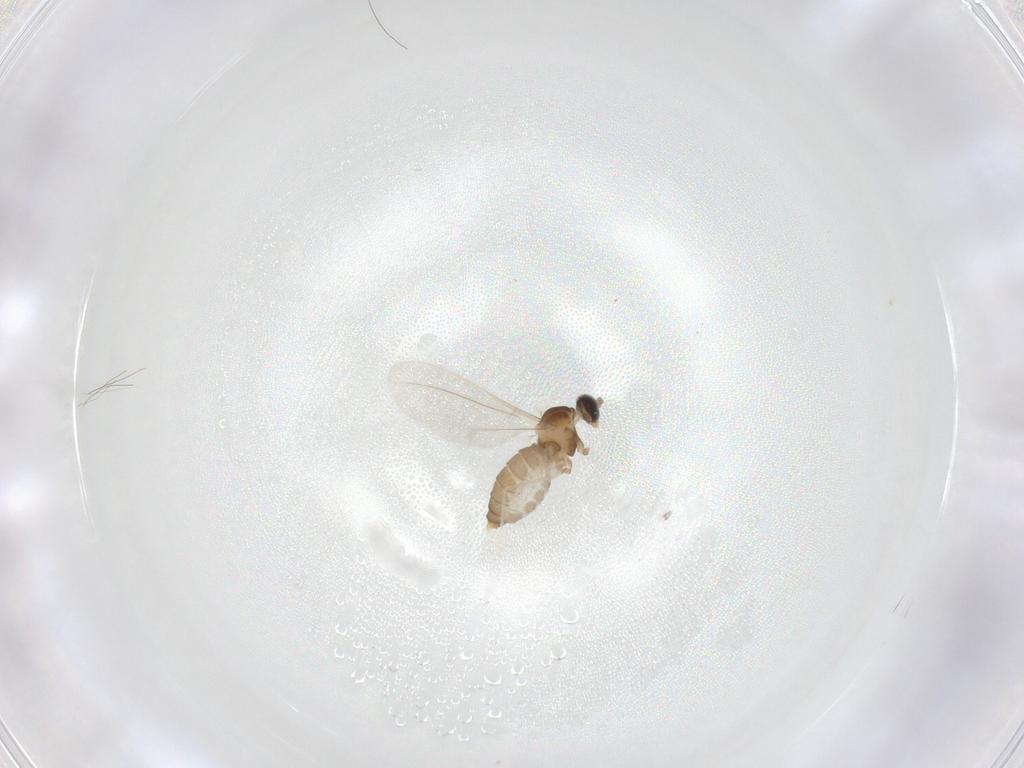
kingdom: Animalia
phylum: Arthropoda
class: Insecta
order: Diptera
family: Cecidomyiidae
